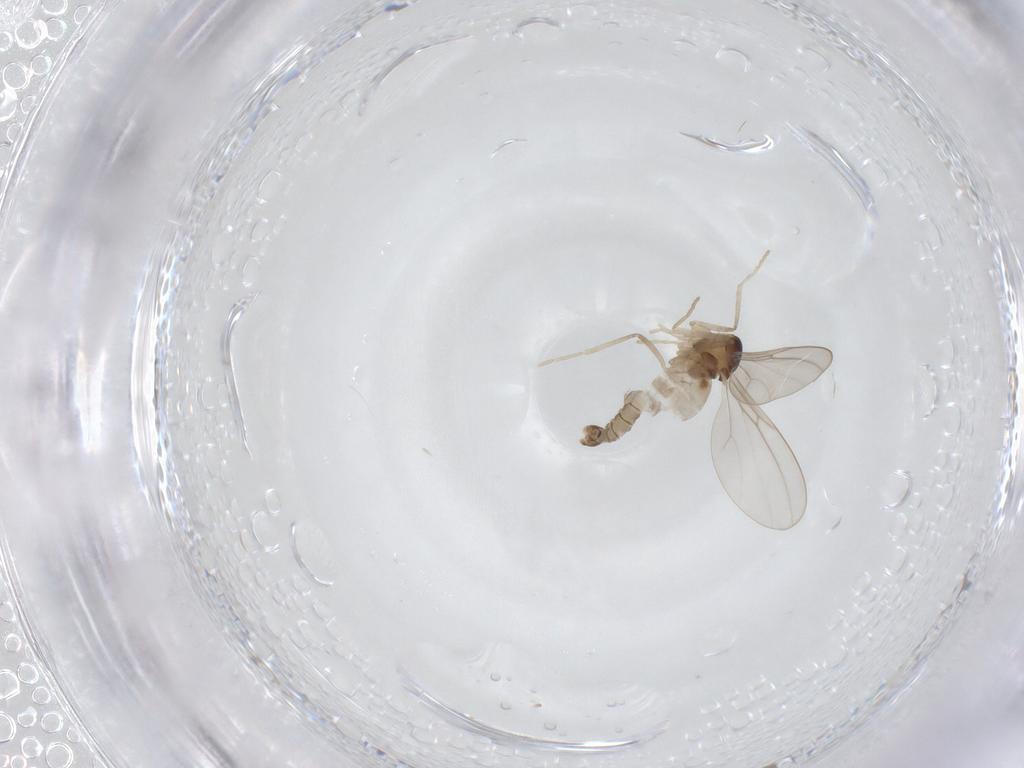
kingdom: Animalia
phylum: Arthropoda
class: Insecta
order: Diptera
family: Cecidomyiidae
